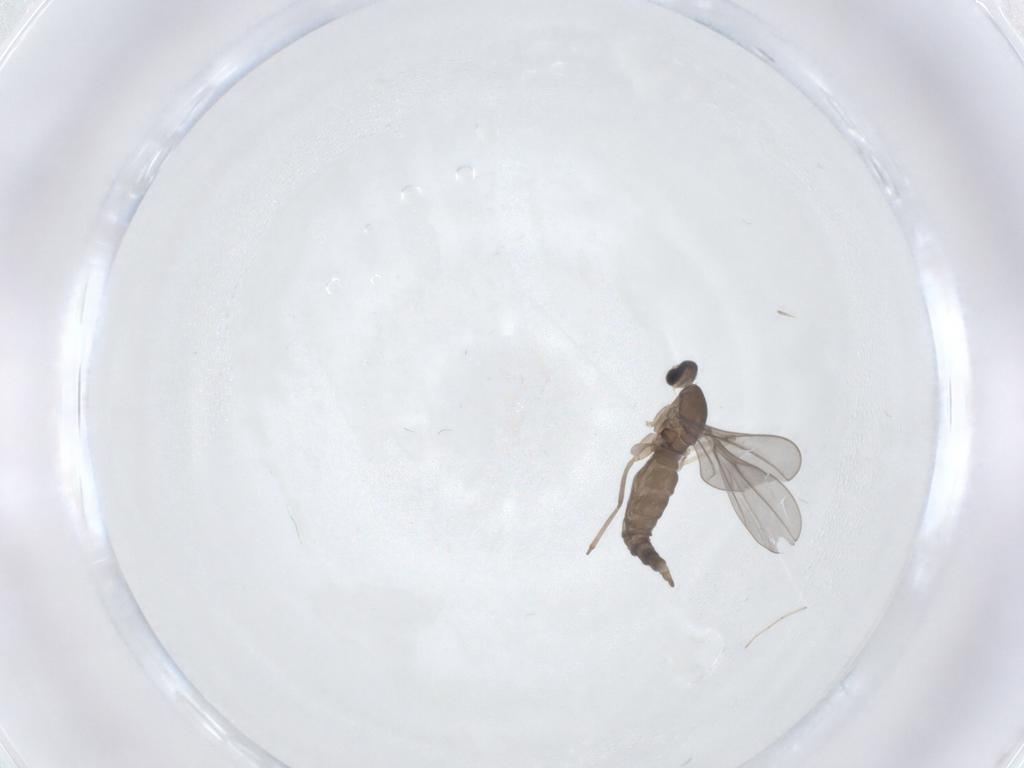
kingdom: Animalia
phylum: Arthropoda
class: Insecta
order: Diptera
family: Cecidomyiidae
